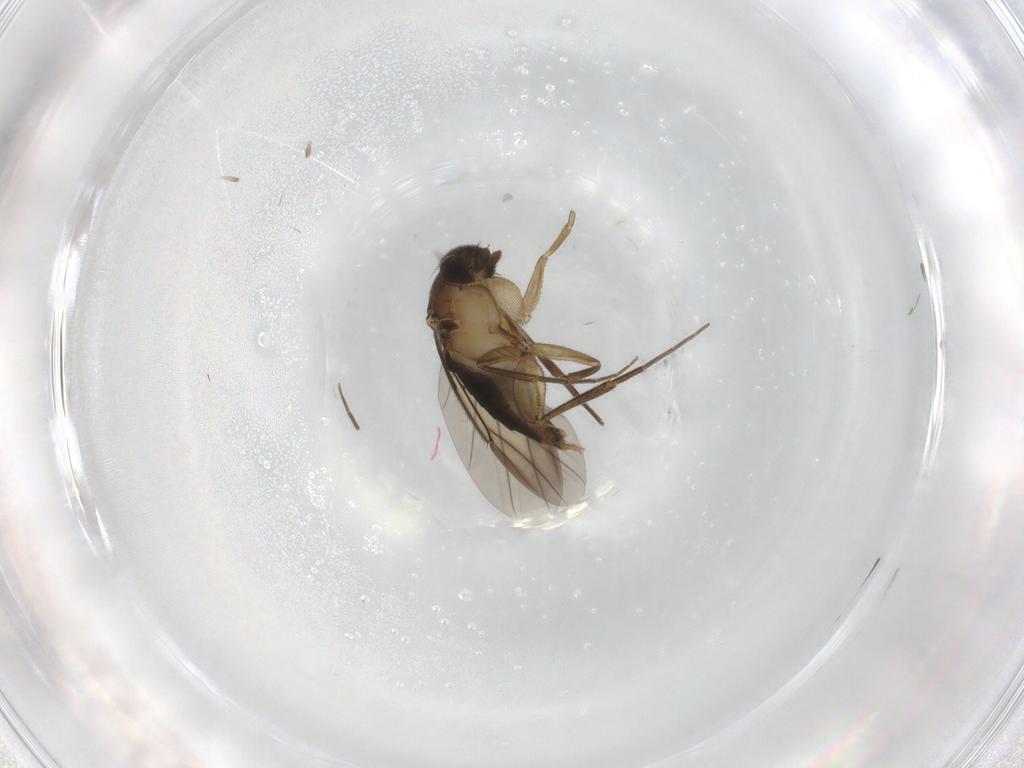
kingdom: Animalia
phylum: Arthropoda
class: Insecta
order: Diptera
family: Phoridae
